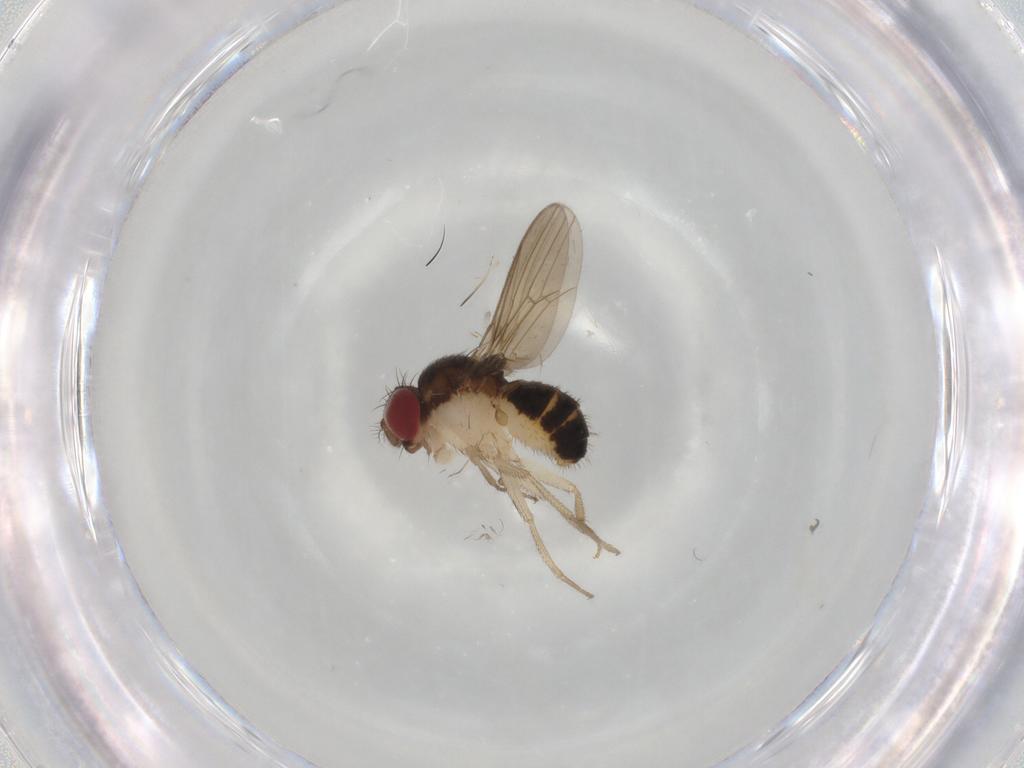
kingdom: Animalia
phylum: Arthropoda
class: Insecta
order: Diptera
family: Drosophilidae
